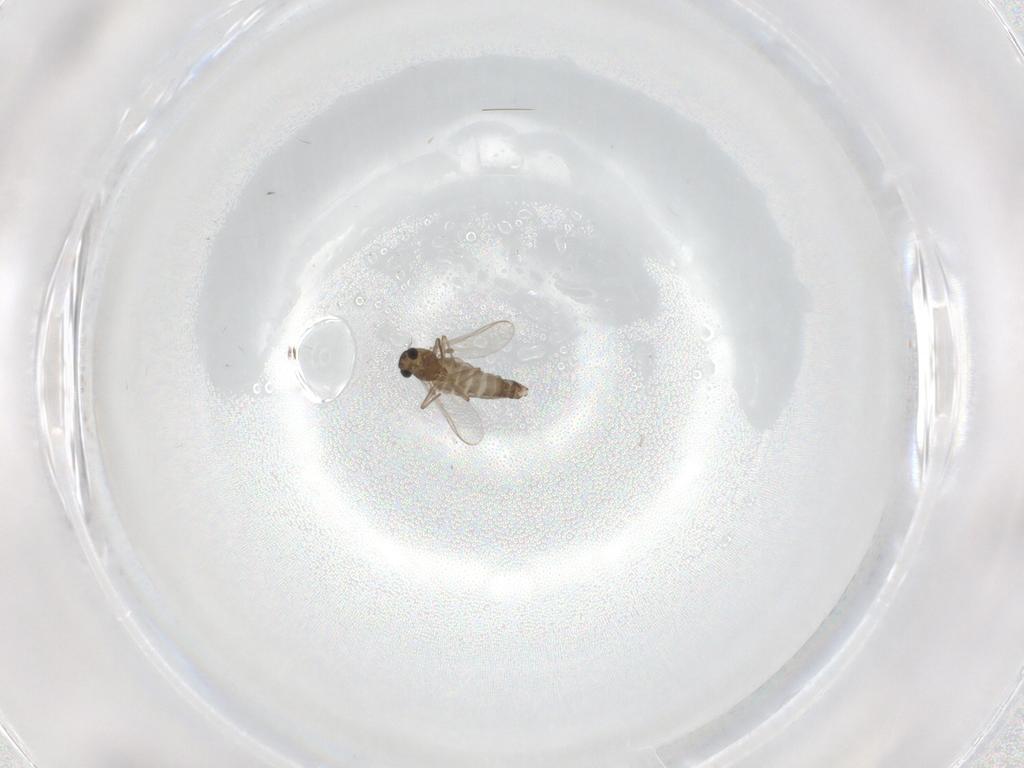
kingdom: Animalia
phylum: Arthropoda
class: Insecta
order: Diptera
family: Chironomidae
